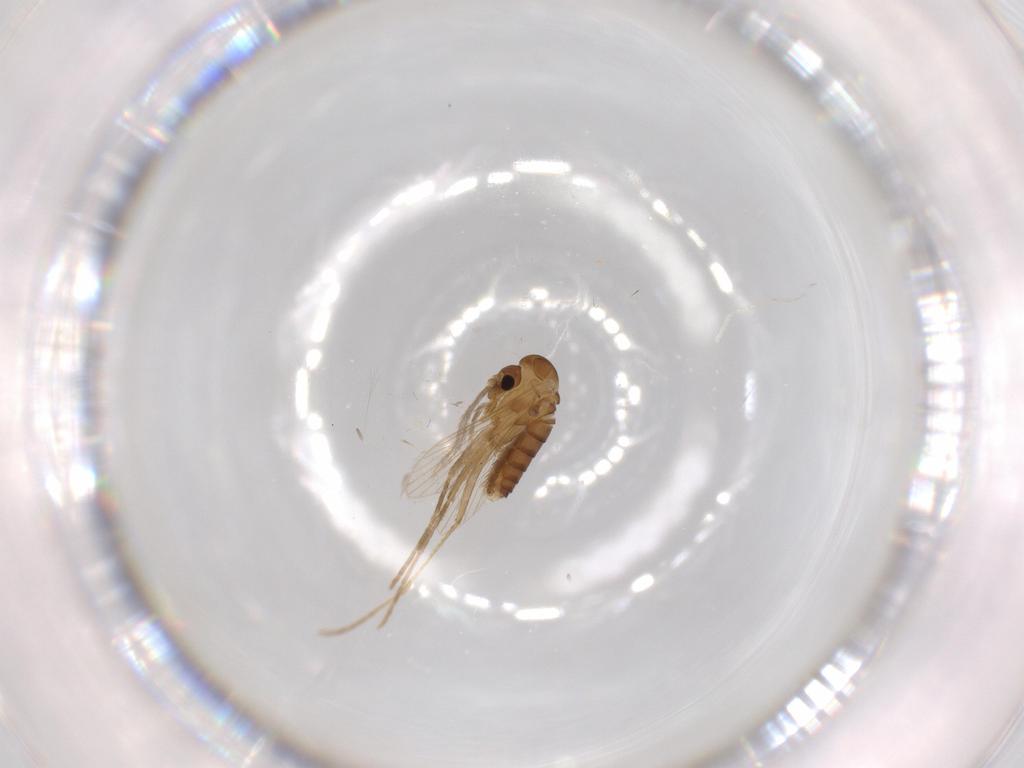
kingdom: Animalia
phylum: Arthropoda
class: Insecta
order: Diptera
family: Psychodidae
